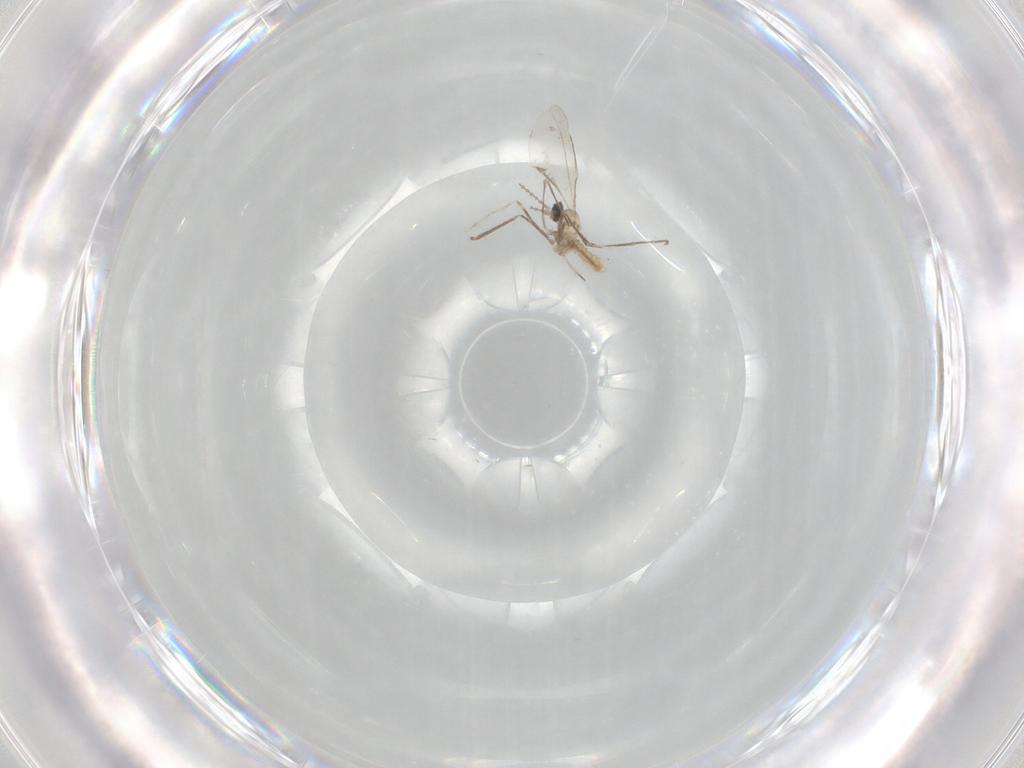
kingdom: Animalia
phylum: Arthropoda
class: Insecta
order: Diptera
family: Cecidomyiidae
